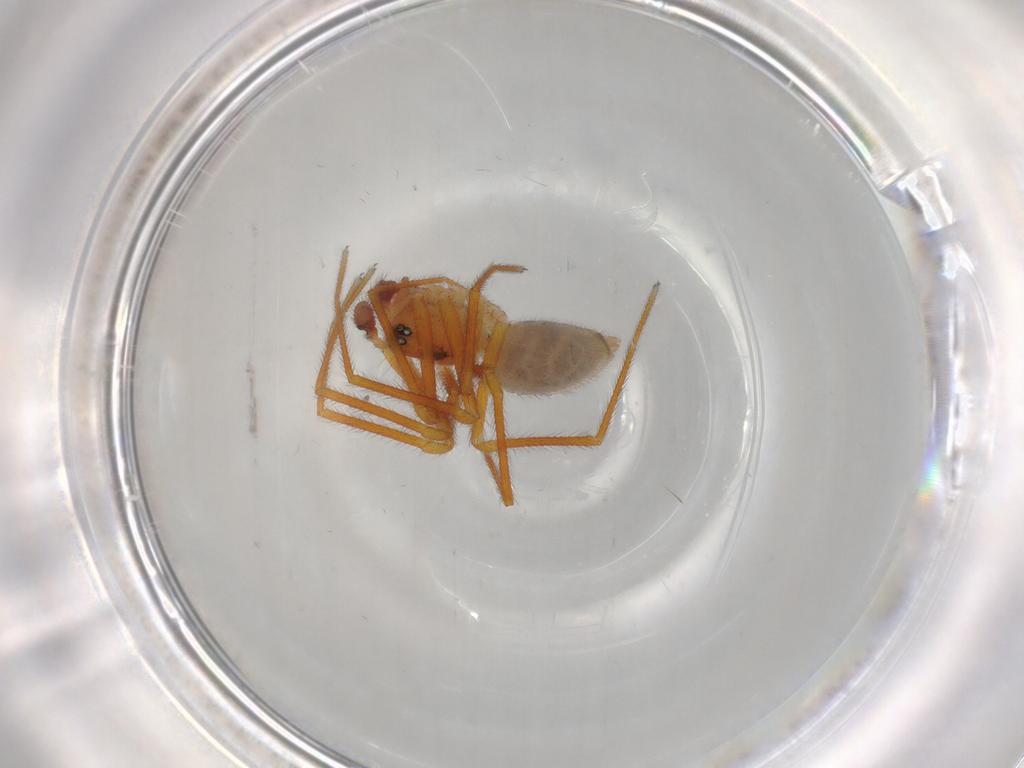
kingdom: Animalia
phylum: Arthropoda
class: Arachnida
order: Araneae
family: Linyphiidae
